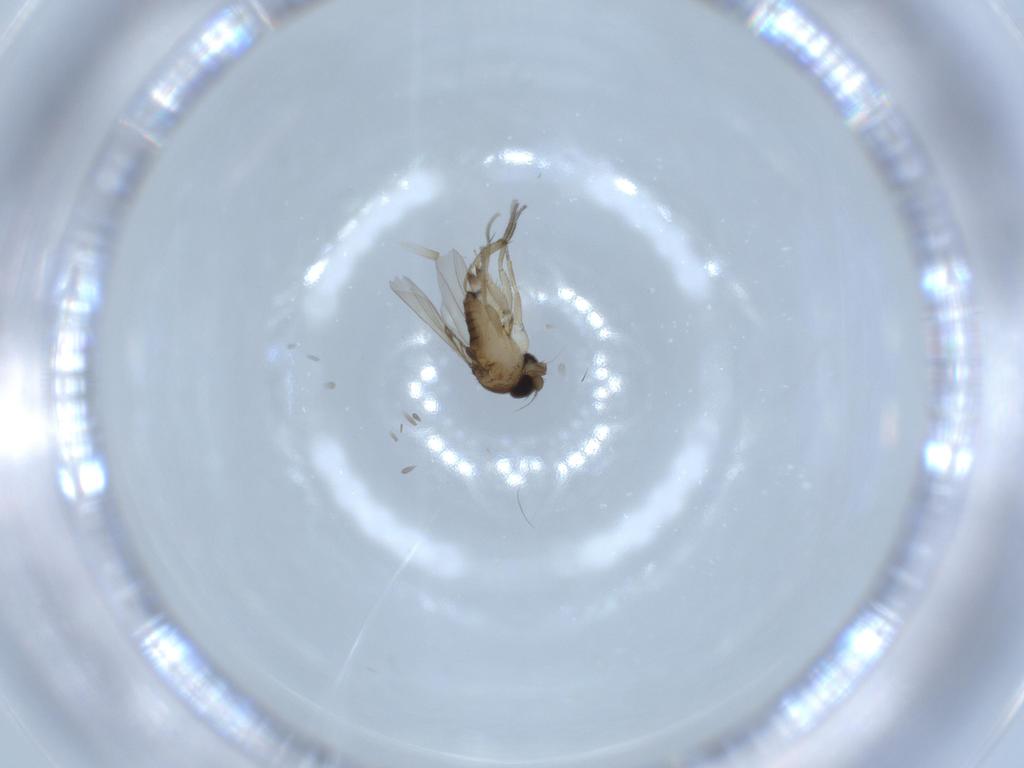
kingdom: Animalia
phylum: Arthropoda
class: Insecta
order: Diptera
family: Phoridae
